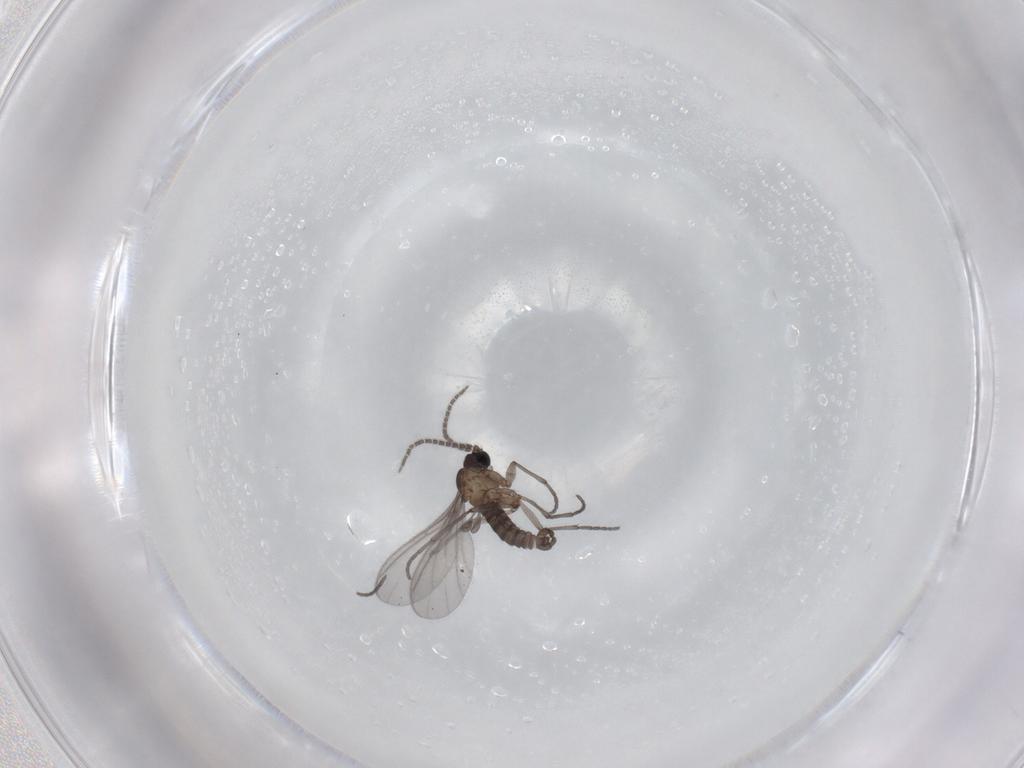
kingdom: Animalia
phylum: Arthropoda
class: Insecta
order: Diptera
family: Sciaridae
